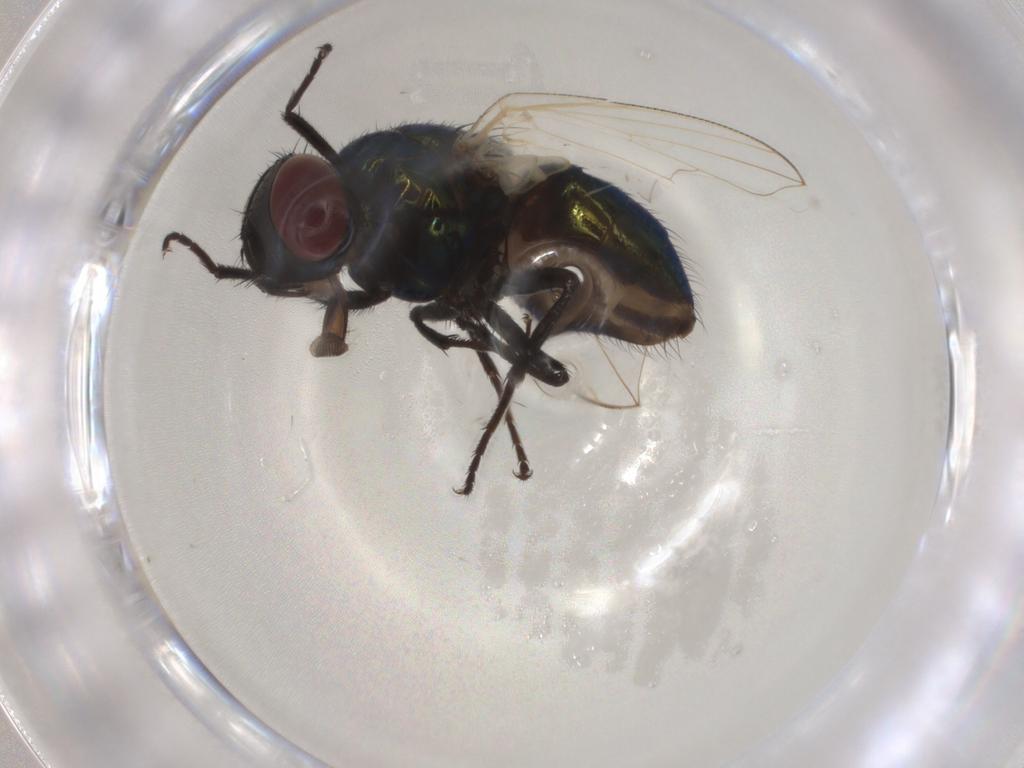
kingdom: Animalia
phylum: Arthropoda
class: Insecta
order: Diptera
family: Muscidae
